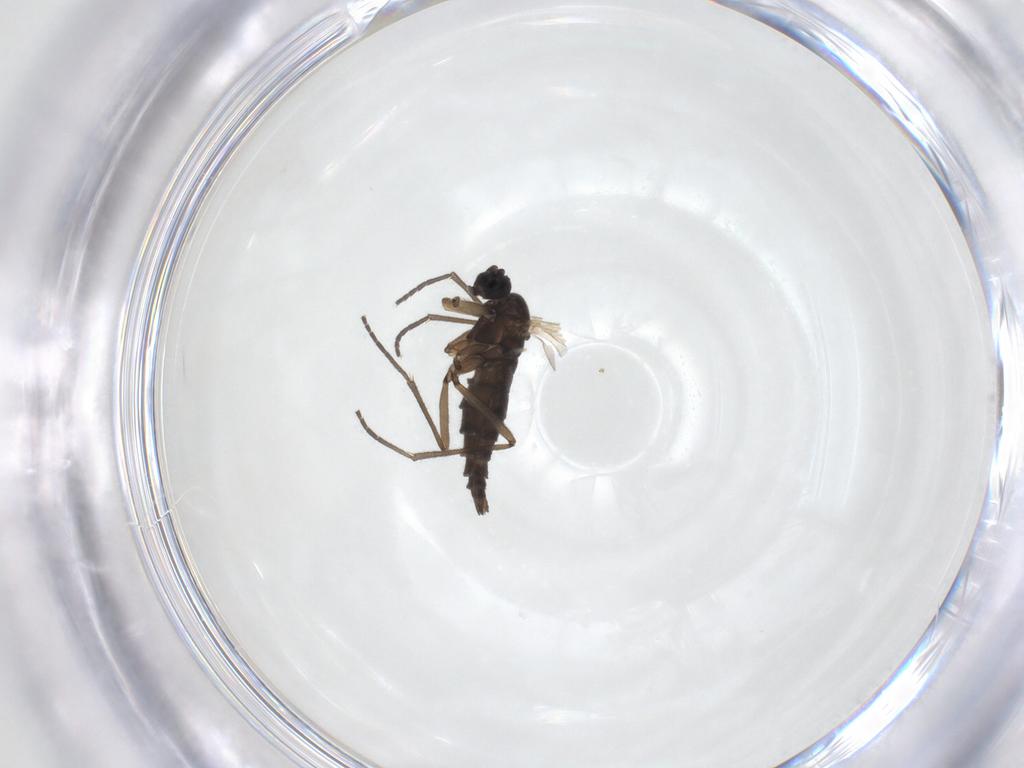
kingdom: Animalia
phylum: Arthropoda
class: Insecta
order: Diptera
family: Sciaridae
